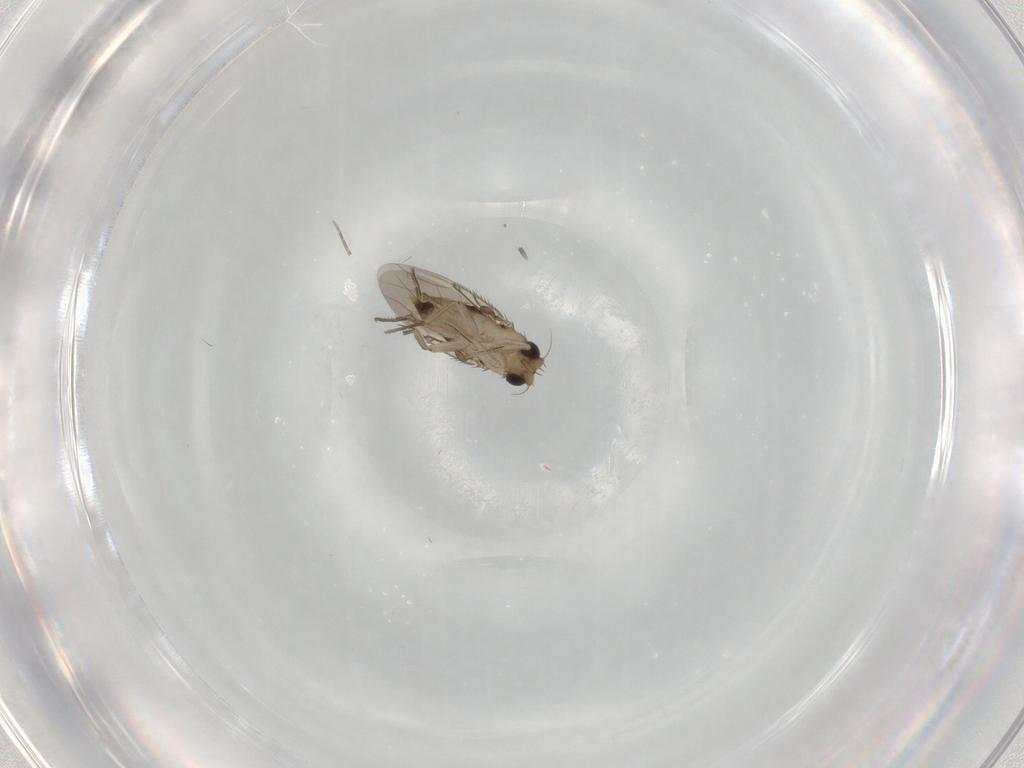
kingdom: Animalia
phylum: Arthropoda
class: Insecta
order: Diptera
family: Phoridae
